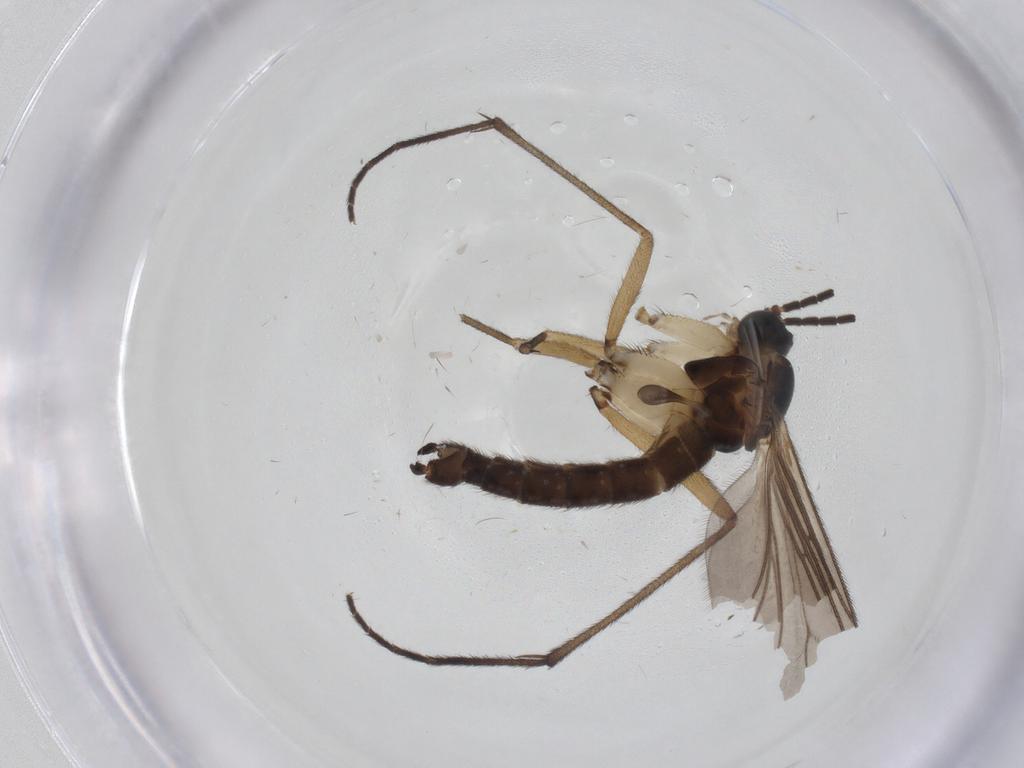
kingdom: Animalia
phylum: Arthropoda
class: Insecta
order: Diptera
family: Sciaridae
